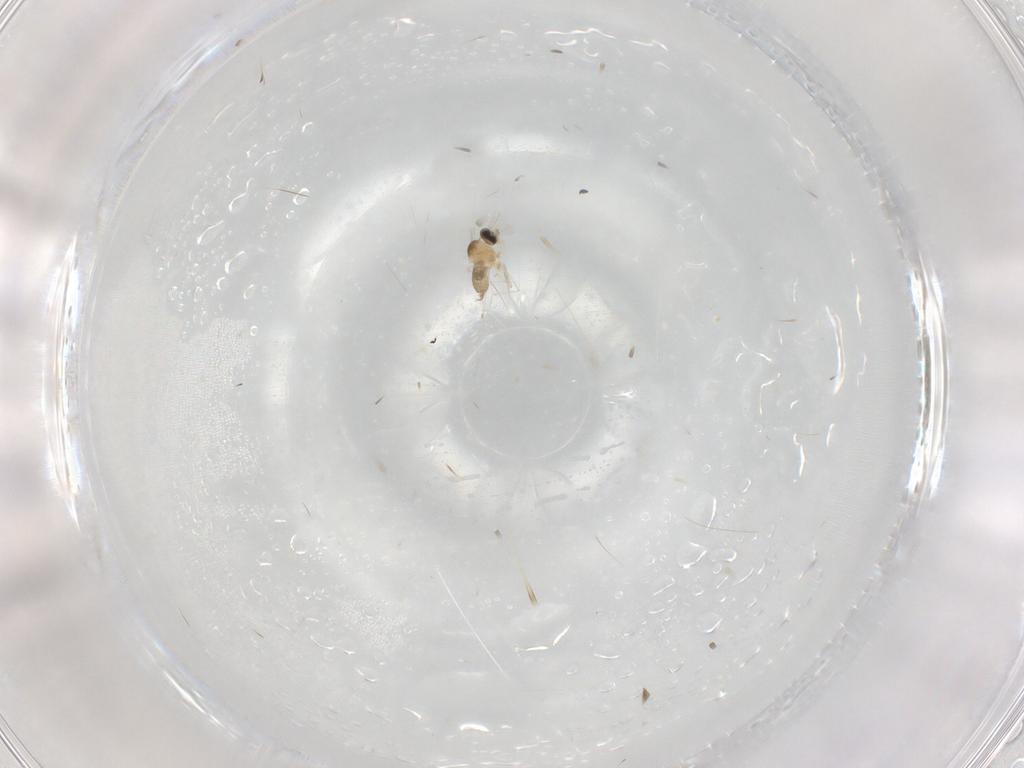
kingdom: Animalia
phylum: Arthropoda
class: Insecta
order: Diptera
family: Cecidomyiidae
